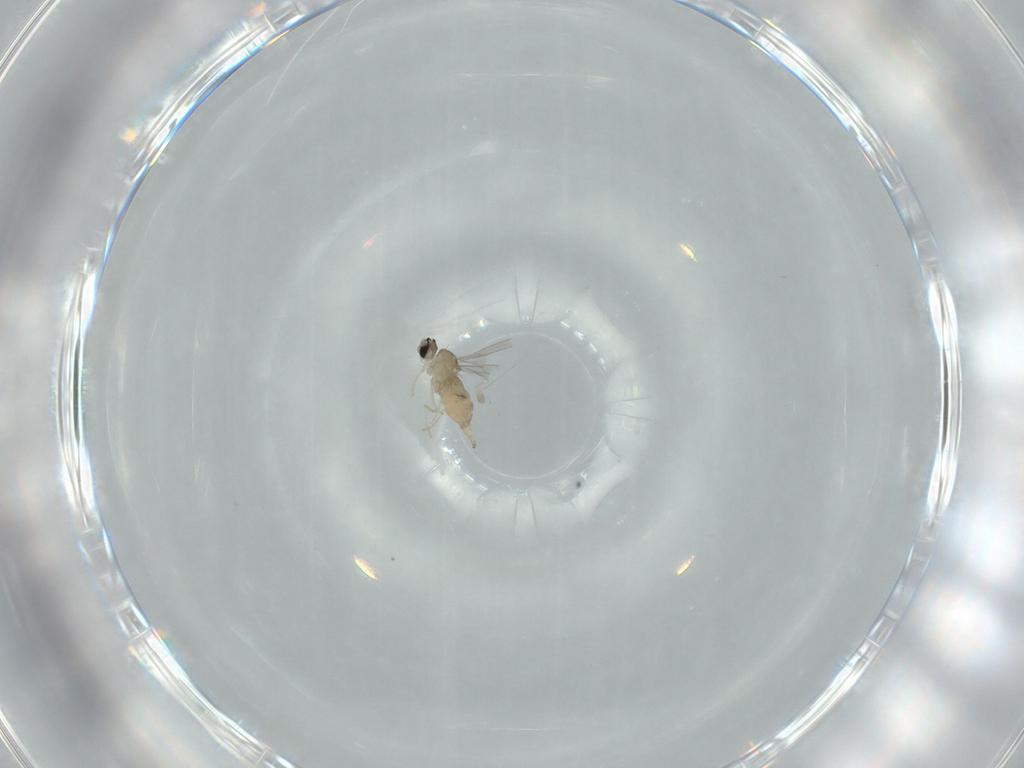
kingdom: Animalia
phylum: Arthropoda
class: Insecta
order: Diptera
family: Cecidomyiidae
